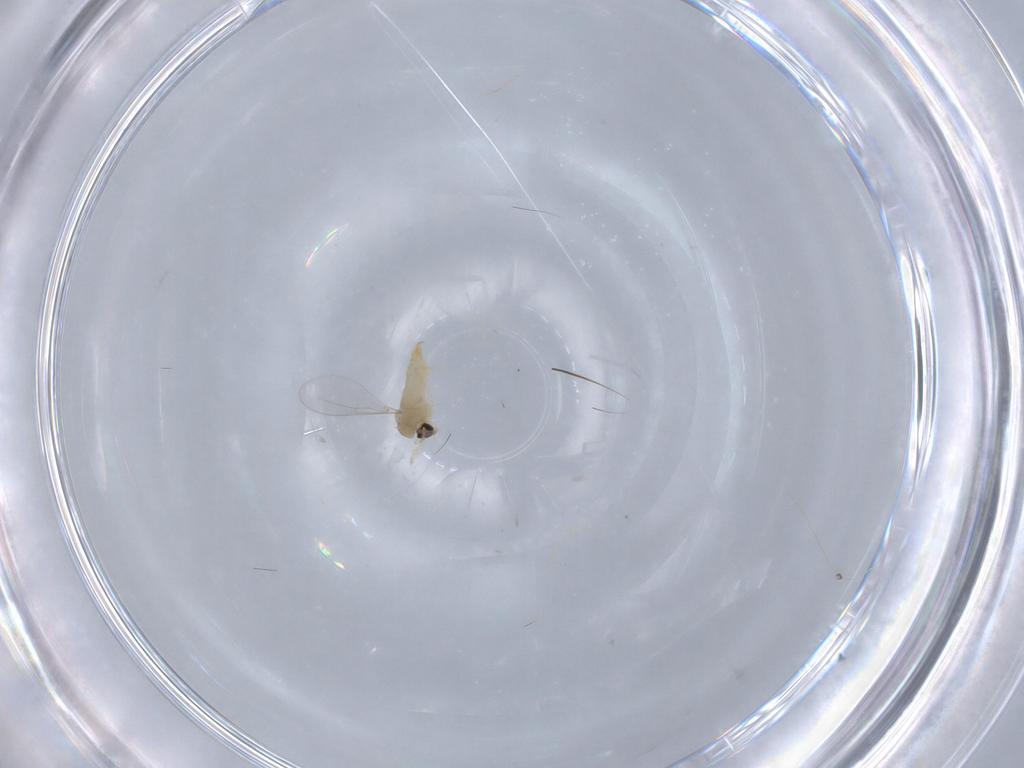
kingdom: Animalia
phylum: Arthropoda
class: Insecta
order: Diptera
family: Cecidomyiidae
